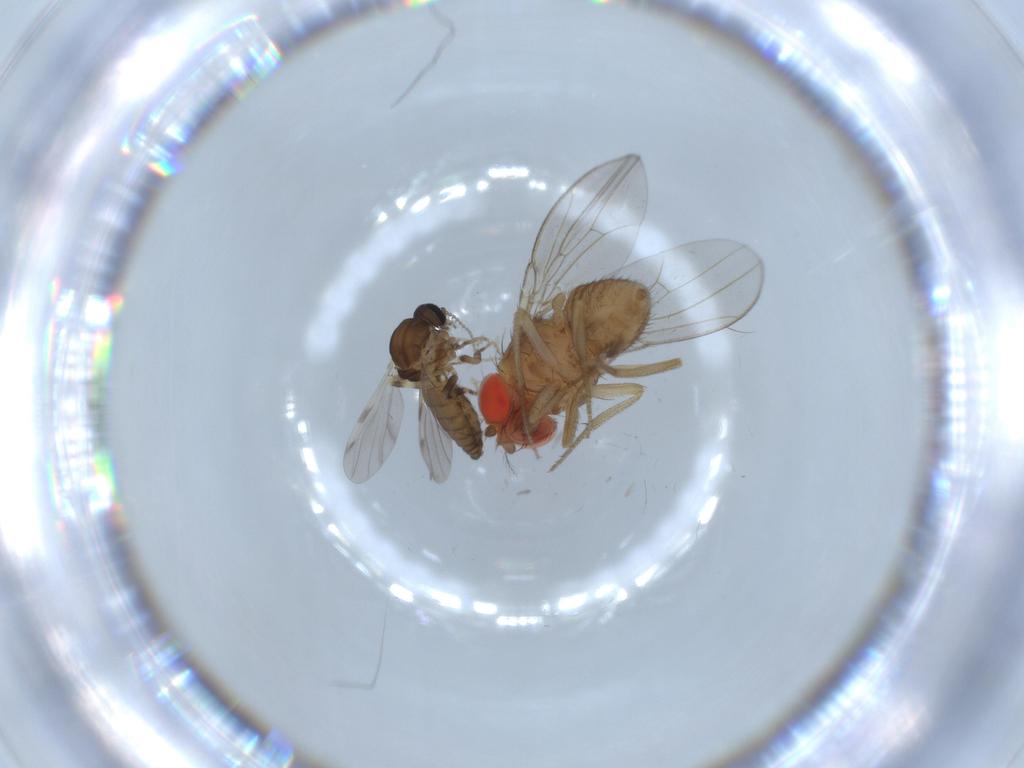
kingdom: Animalia
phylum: Arthropoda
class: Insecta
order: Diptera
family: Drosophilidae
